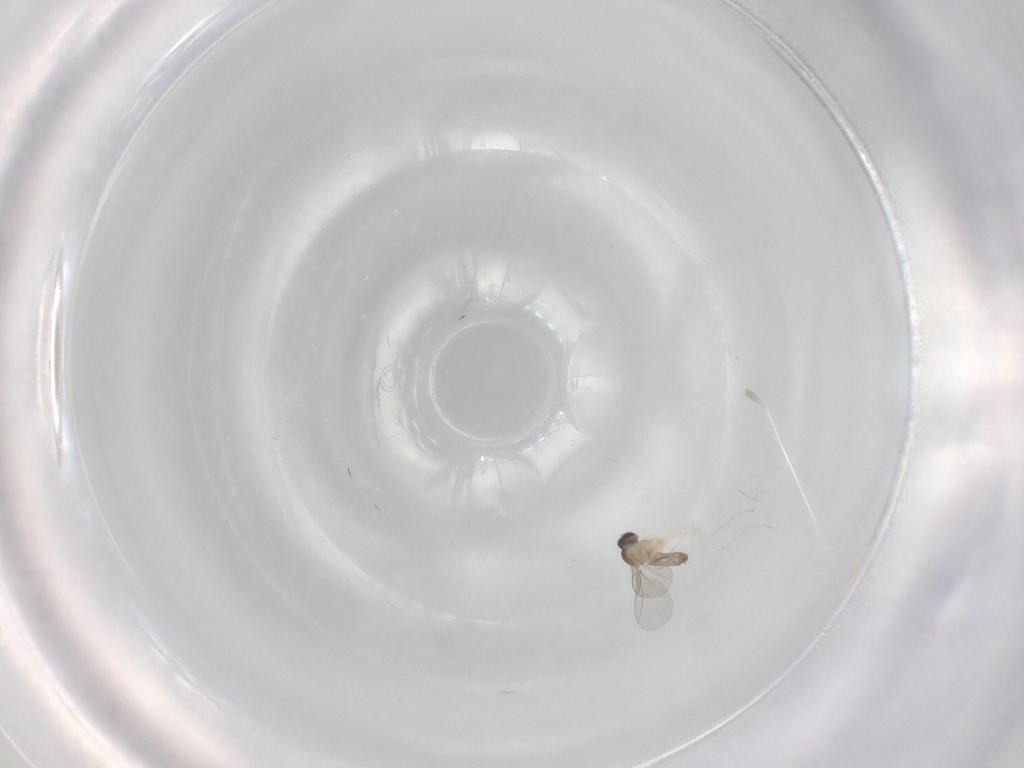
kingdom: Animalia
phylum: Arthropoda
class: Insecta
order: Diptera
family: Cecidomyiidae
